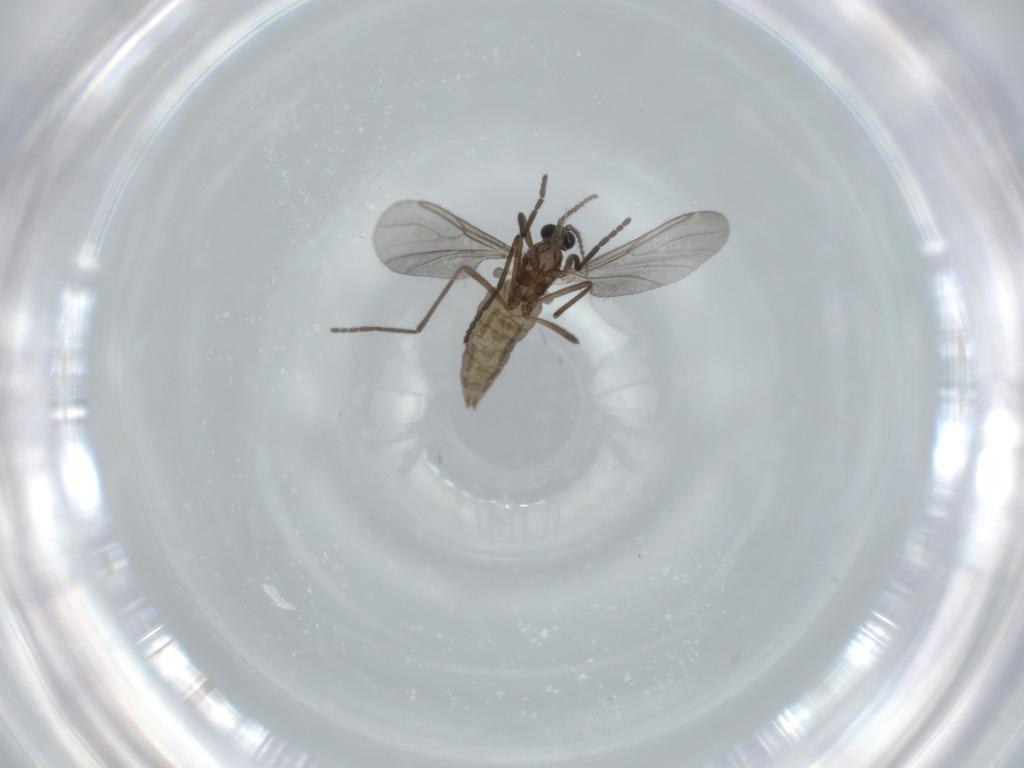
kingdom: Animalia
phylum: Arthropoda
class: Insecta
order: Diptera
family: Cecidomyiidae
